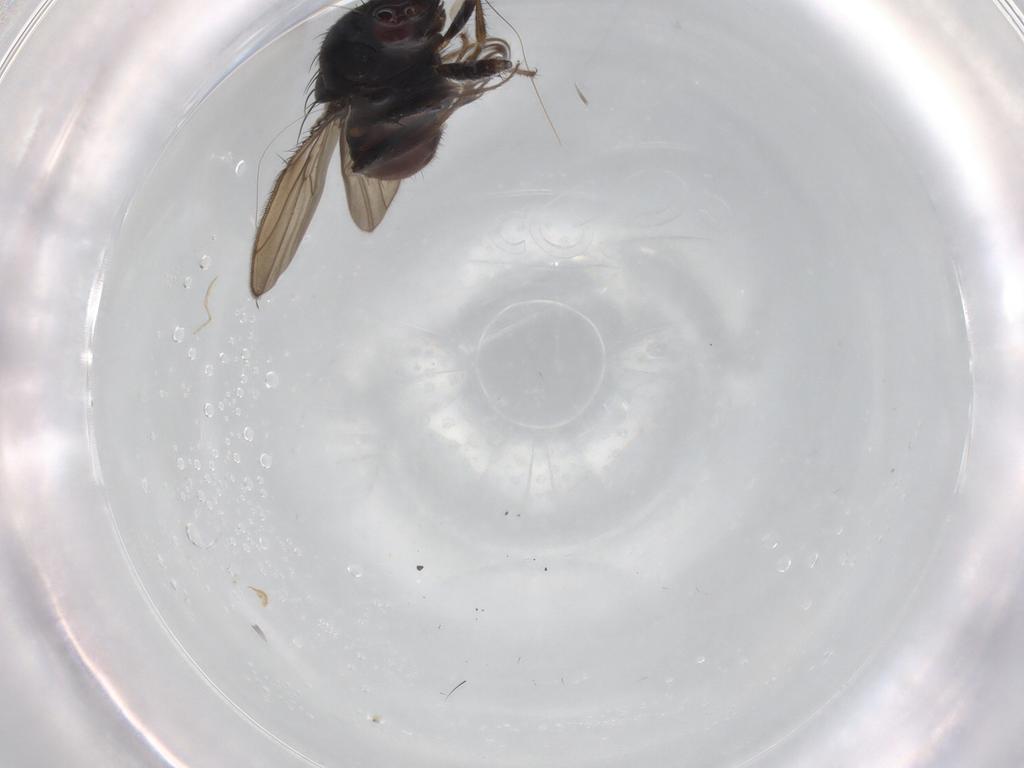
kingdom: Animalia
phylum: Arthropoda
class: Insecta
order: Diptera
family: Sphaeroceridae
